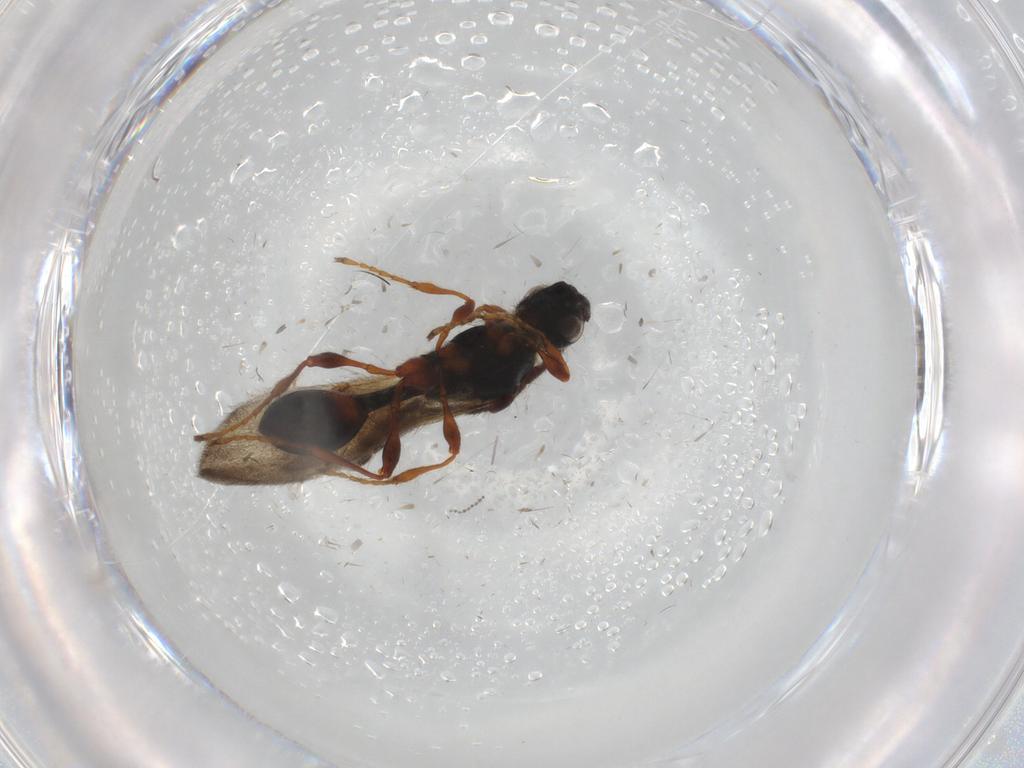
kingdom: Animalia
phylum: Arthropoda
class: Insecta
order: Hymenoptera
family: Diapriidae
